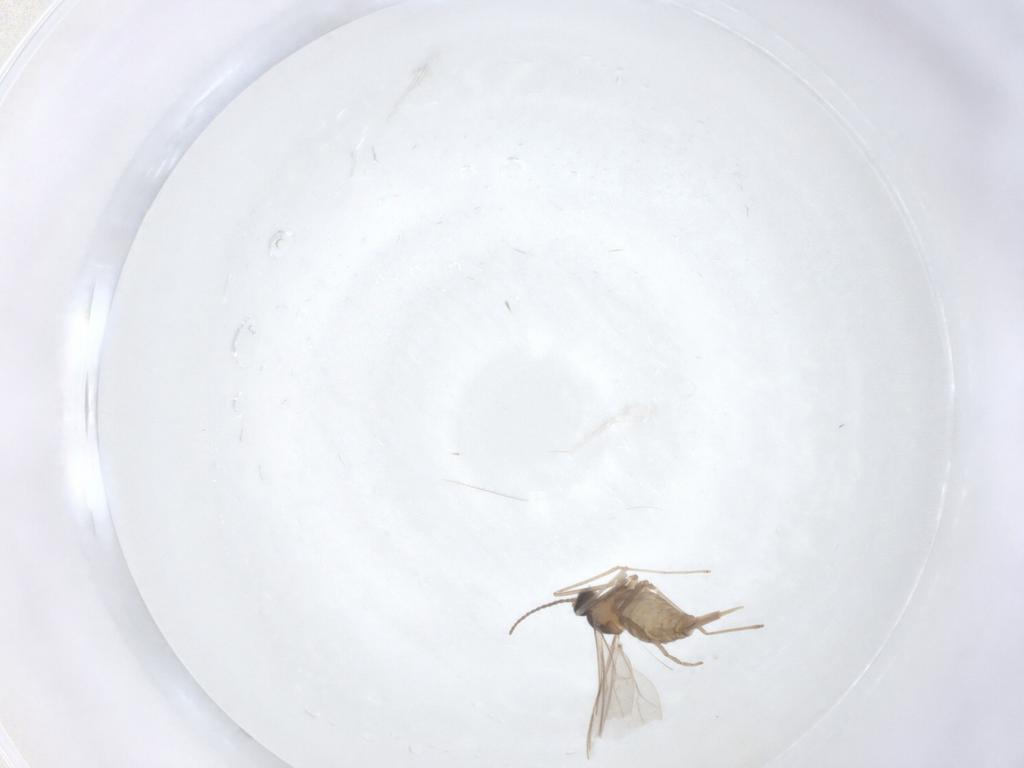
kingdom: Animalia
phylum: Arthropoda
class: Insecta
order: Diptera
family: Cecidomyiidae
